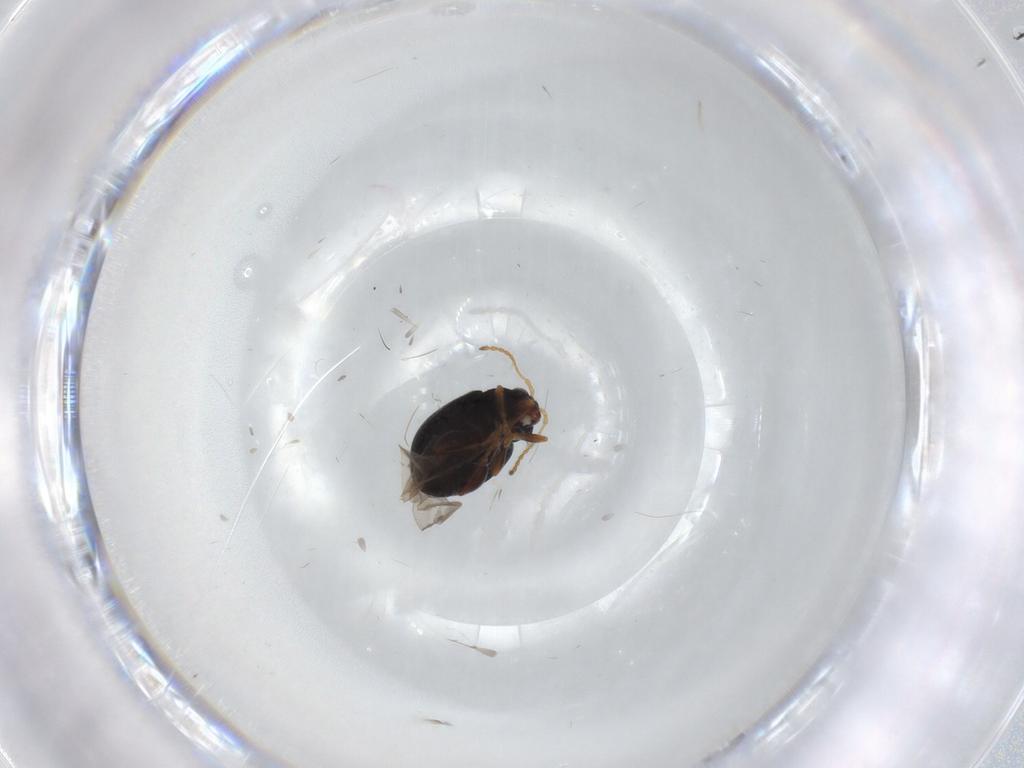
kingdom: Animalia
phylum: Arthropoda
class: Insecta
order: Coleoptera
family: Chrysomelidae
